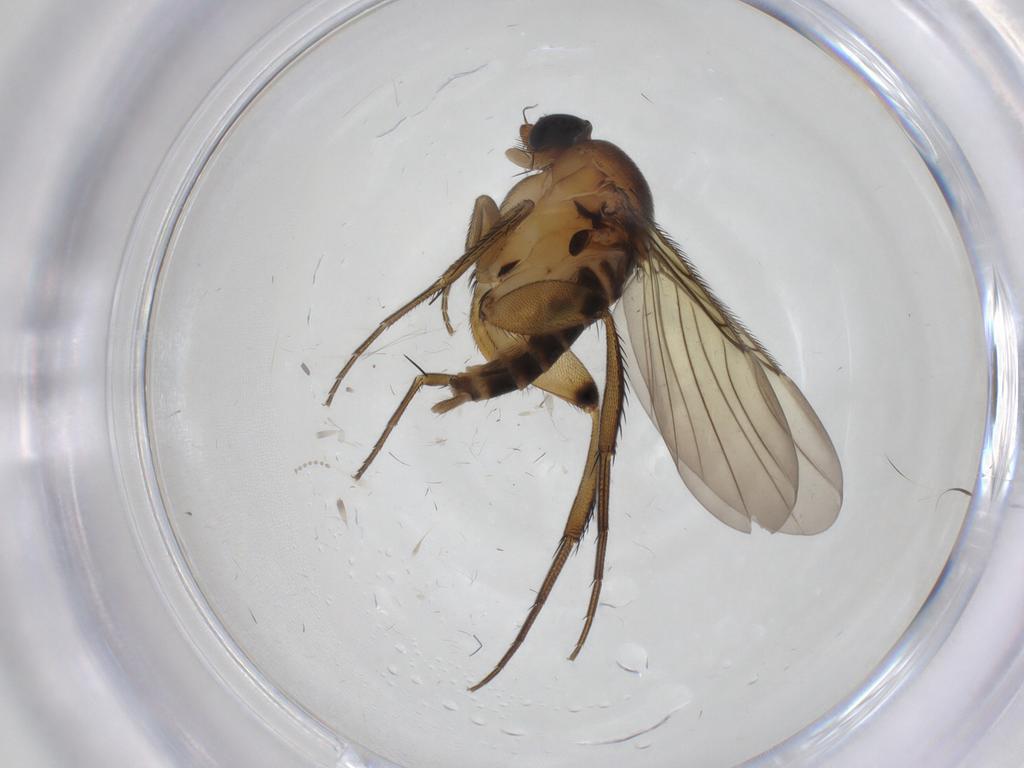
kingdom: Animalia
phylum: Arthropoda
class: Insecta
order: Diptera
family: Psychodidae
